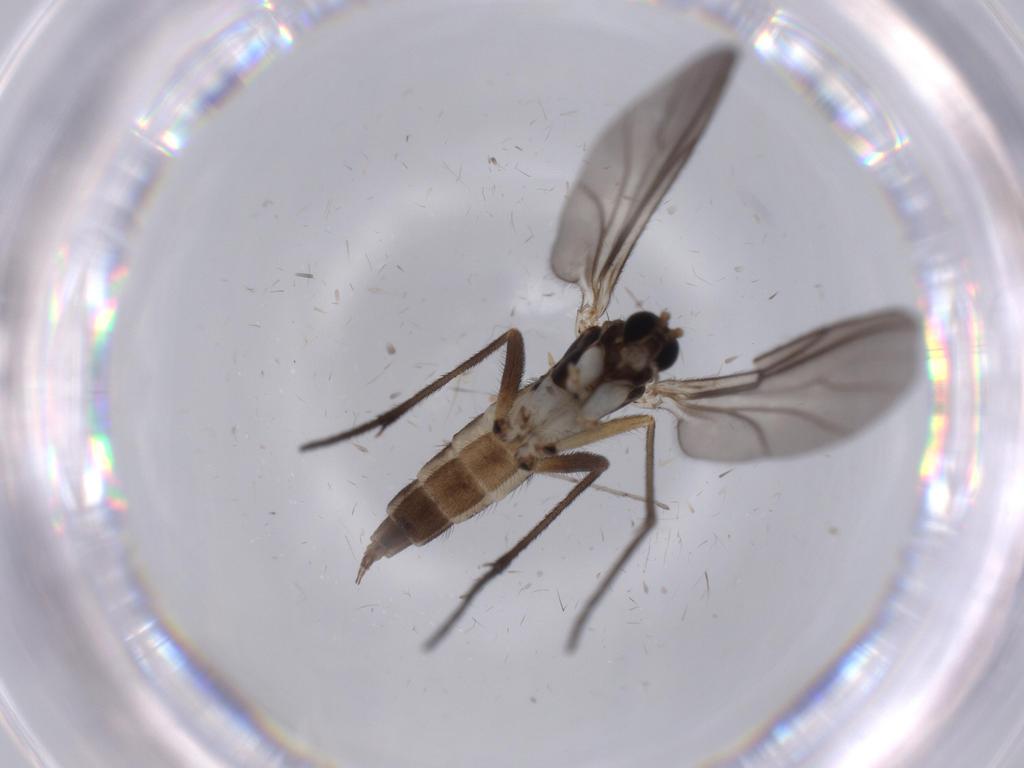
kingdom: Animalia
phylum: Arthropoda
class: Insecta
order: Diptera
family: Sciaridae
